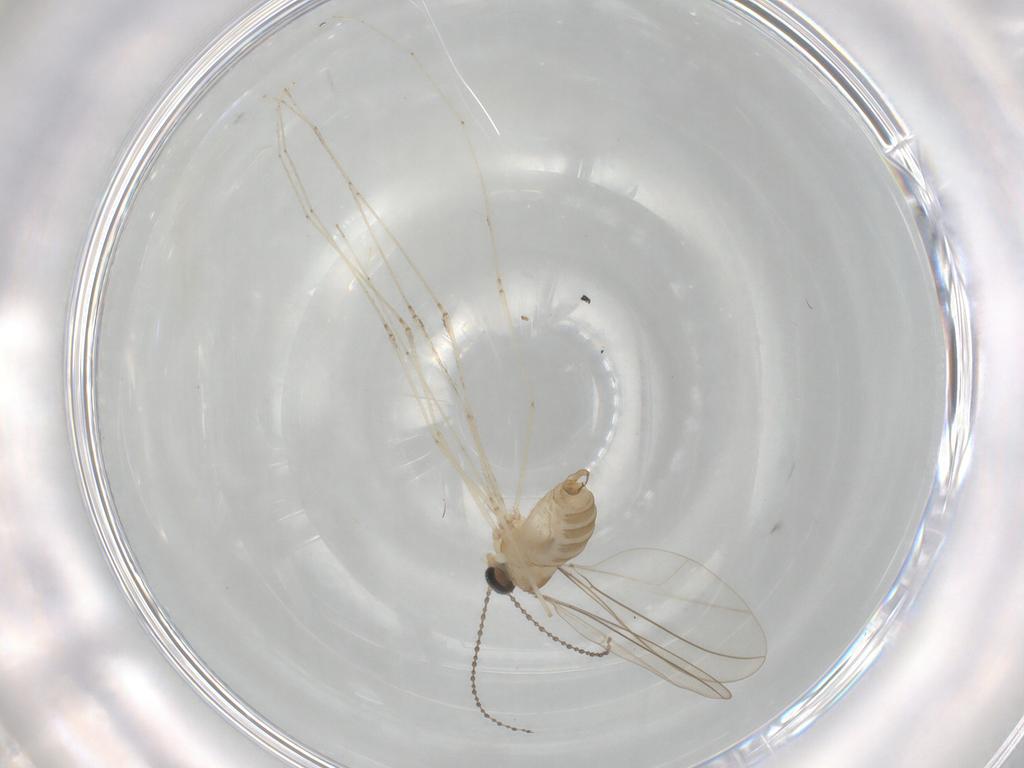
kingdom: Animalia
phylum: Arthropoda
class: Insecta
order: Diptera
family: Cecidomyiidae
